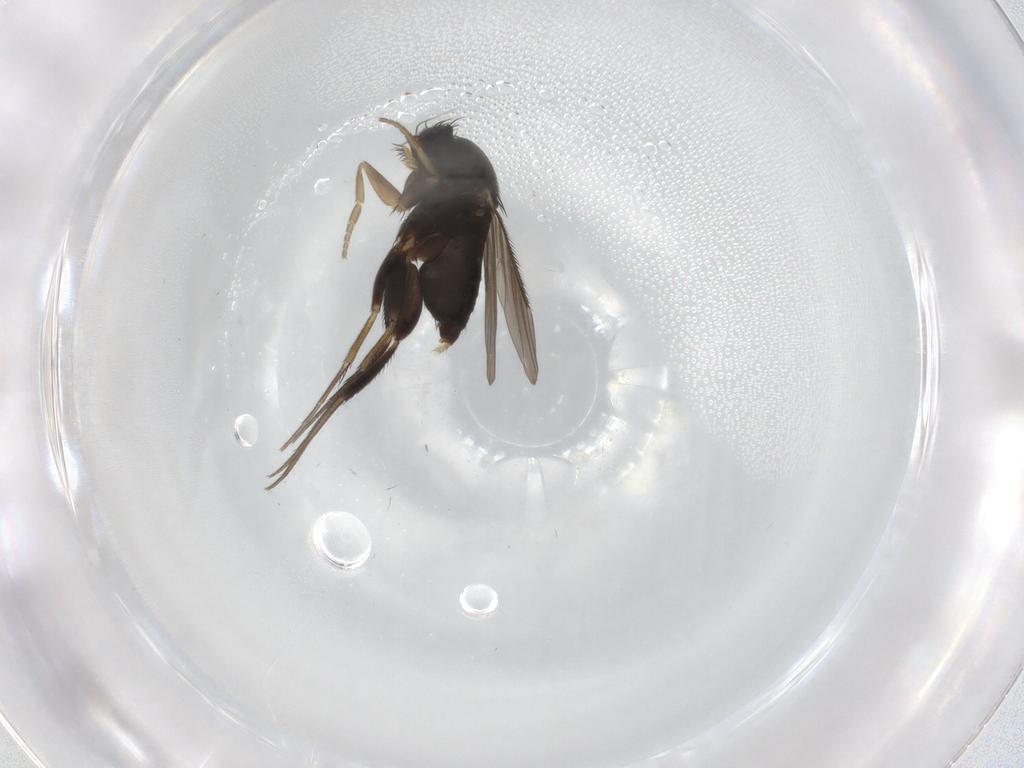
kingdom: Animalia
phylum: Arthropoda
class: Insecta
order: Diptera
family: Phoridae
